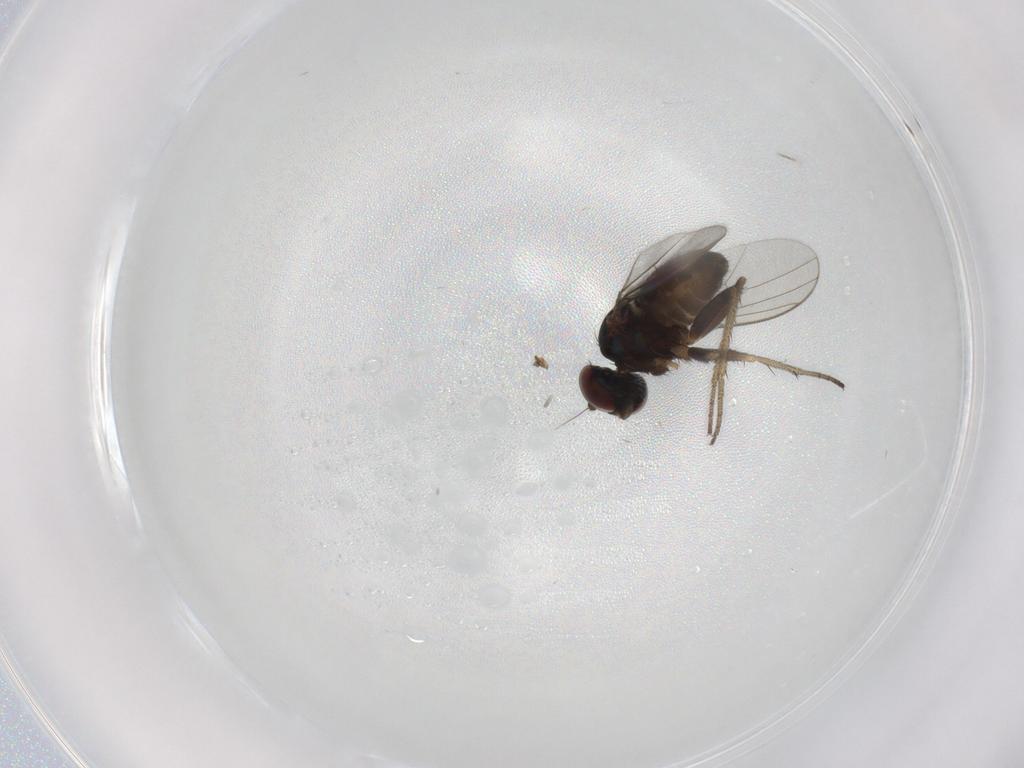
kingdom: Animalia
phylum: Arthropoda
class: Insecta
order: Diptera
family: Dolichopodidae
